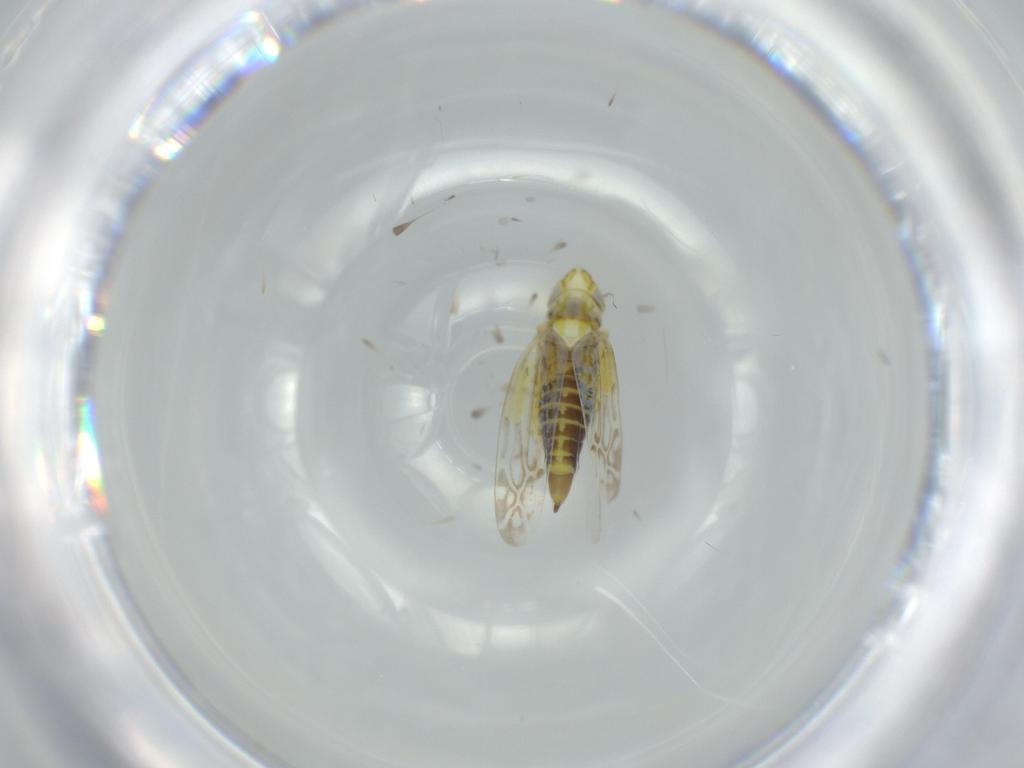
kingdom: Animalia
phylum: Arthropoda
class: Insecta
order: Hemiptera
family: Cicadellidae
